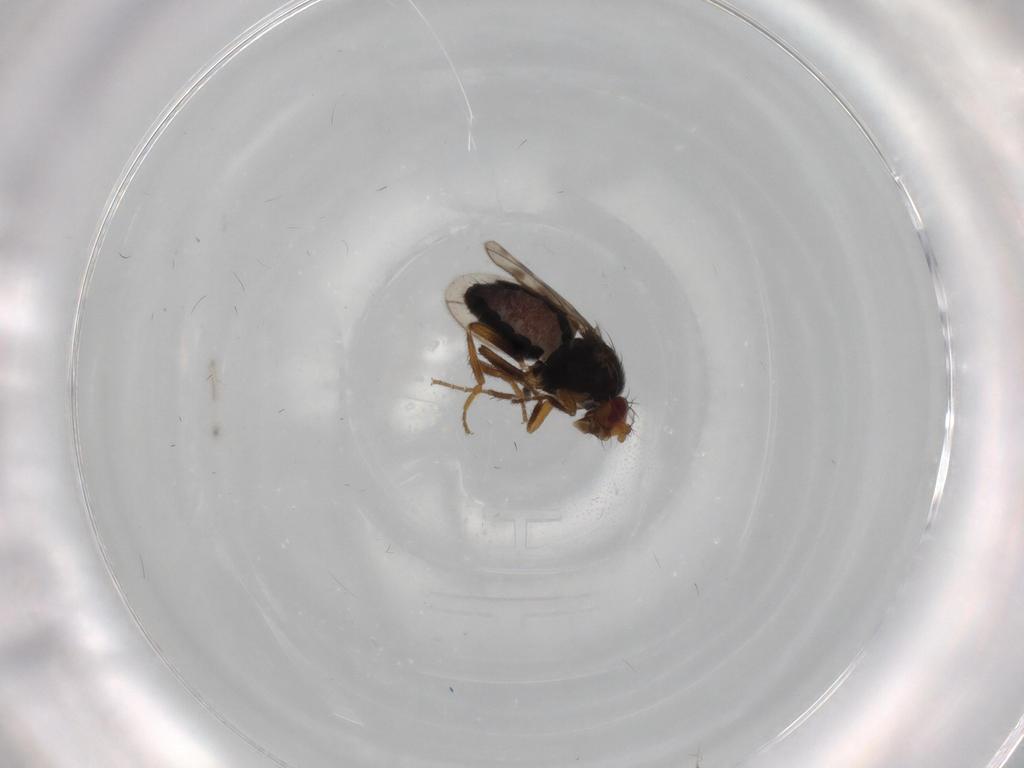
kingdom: Animalia
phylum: Arthropoda
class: Insecta
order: Diptera
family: Sphaeroceridae
